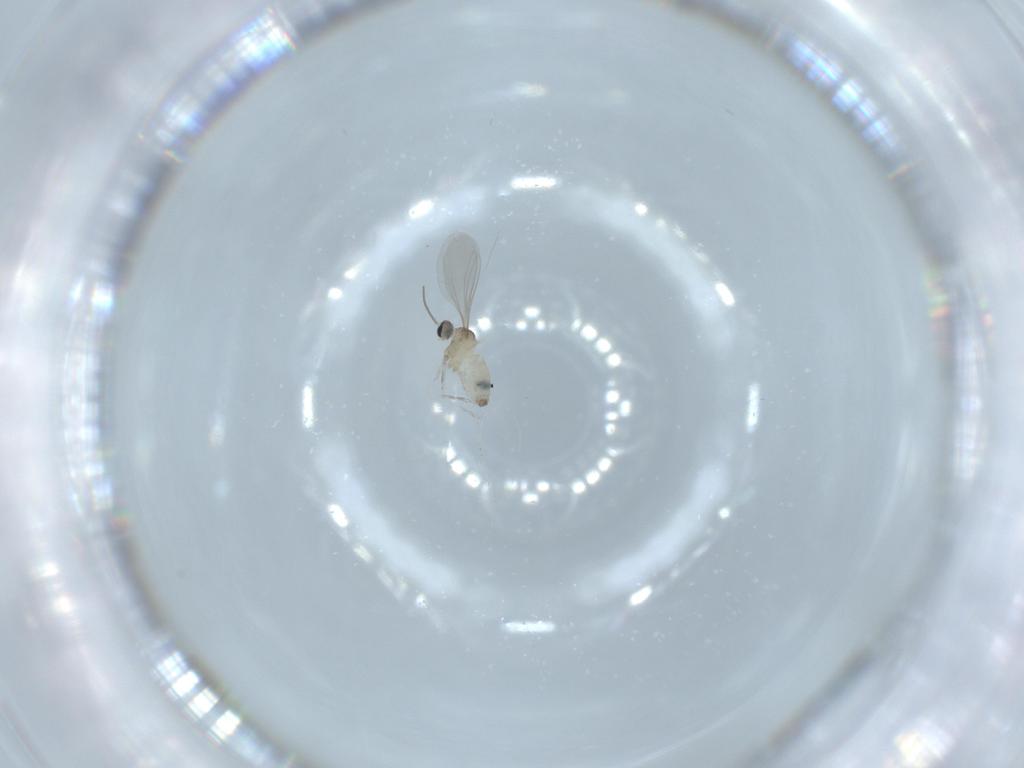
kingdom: Animalia
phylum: Arthropoda
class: Insecta
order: Diptera
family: Cecidomyiidae
